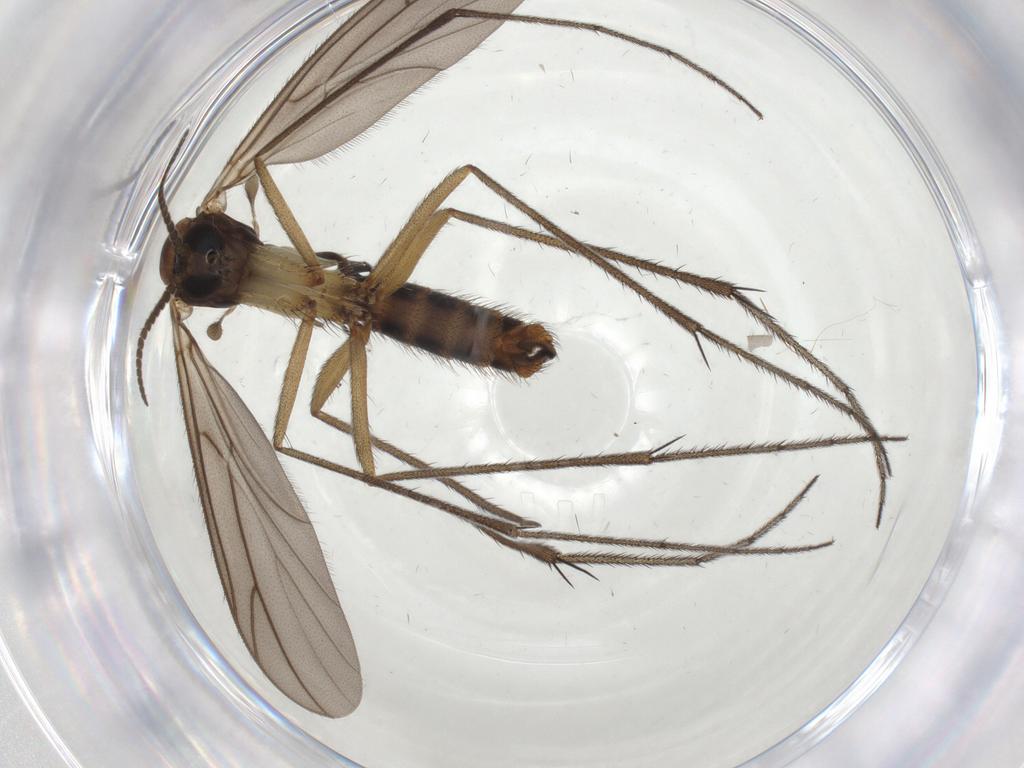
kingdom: Animalia
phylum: Arthropoda
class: Insecta
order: Diptera
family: Ditomyiidae
